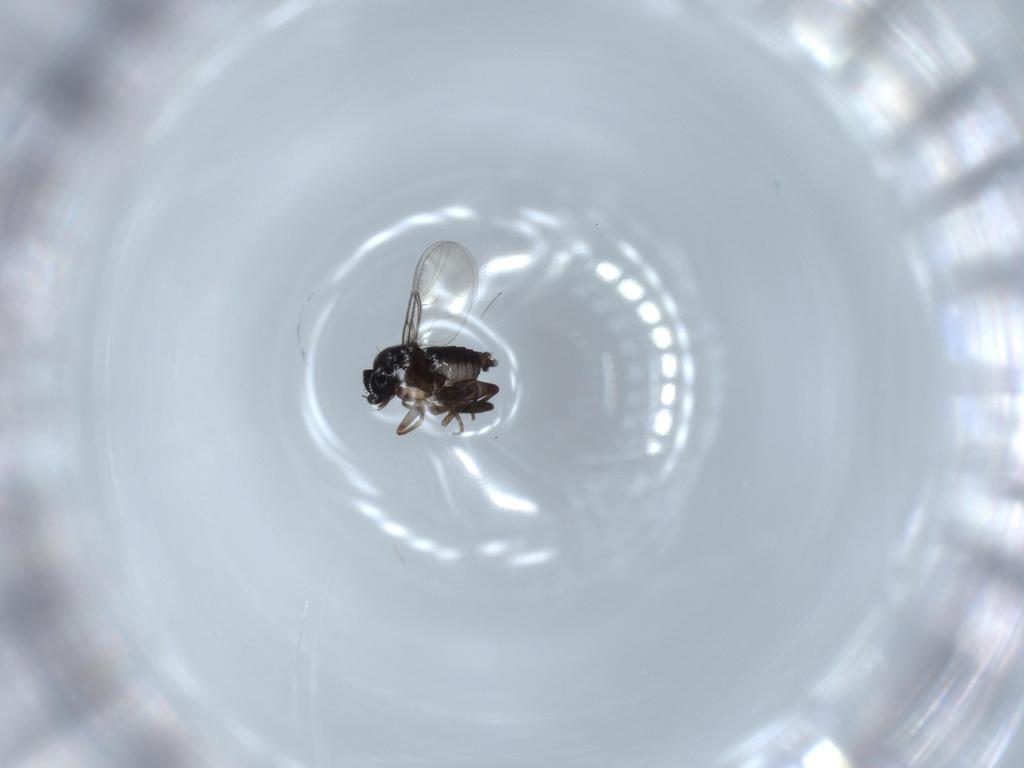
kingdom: Animalia
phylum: Arthropoda
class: Insecta
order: Diptera
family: Phoridae
